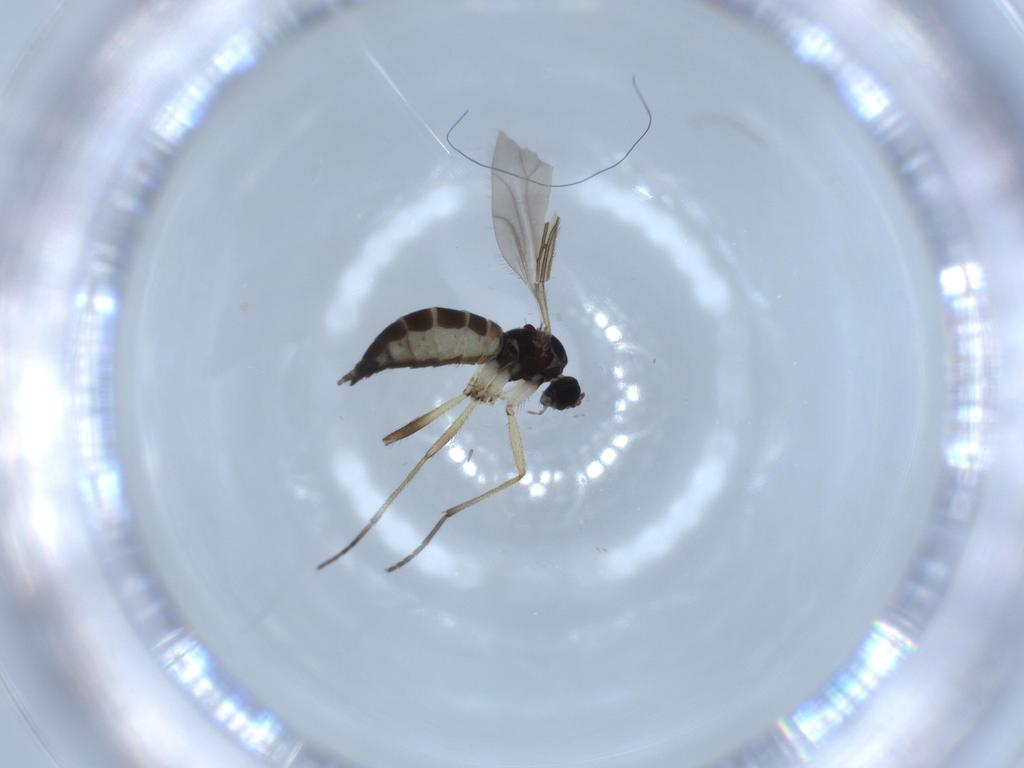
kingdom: Animalia
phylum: Arthropoda
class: Insecta
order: Diptera
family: Sciaridae
